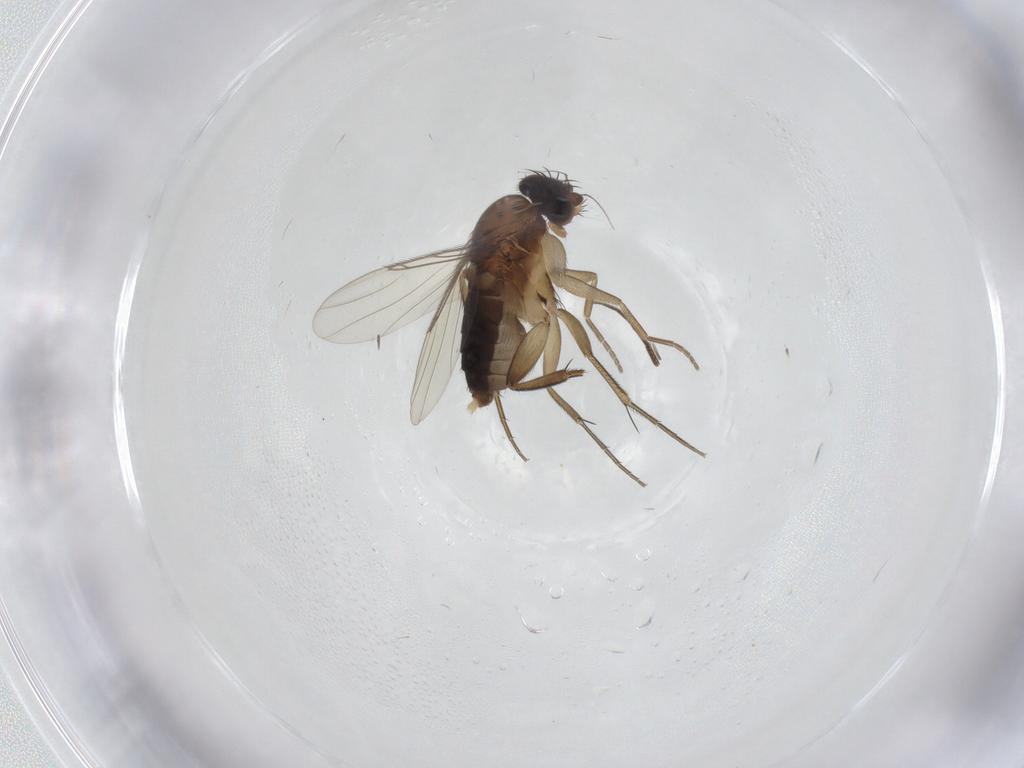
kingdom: Animalia
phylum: Arthropoda
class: Insecta
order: Diptera
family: Phoridae
